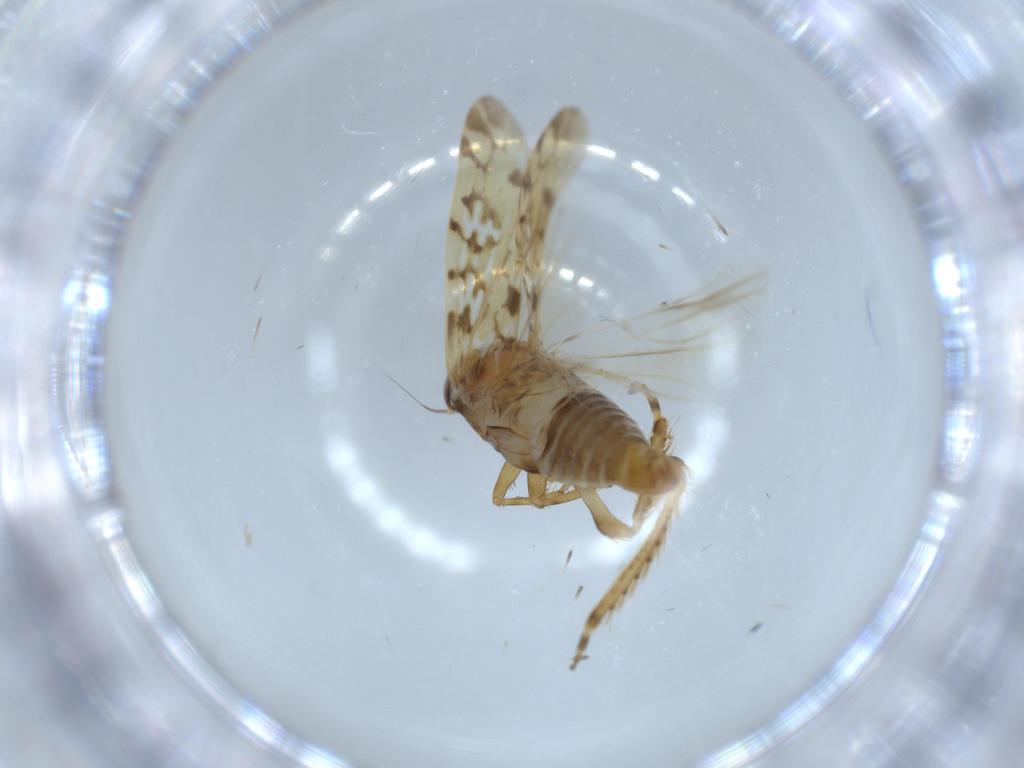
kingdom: Animalia
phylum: Arthropoda
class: Insecta
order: Hemiptera
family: Cicadellidae
